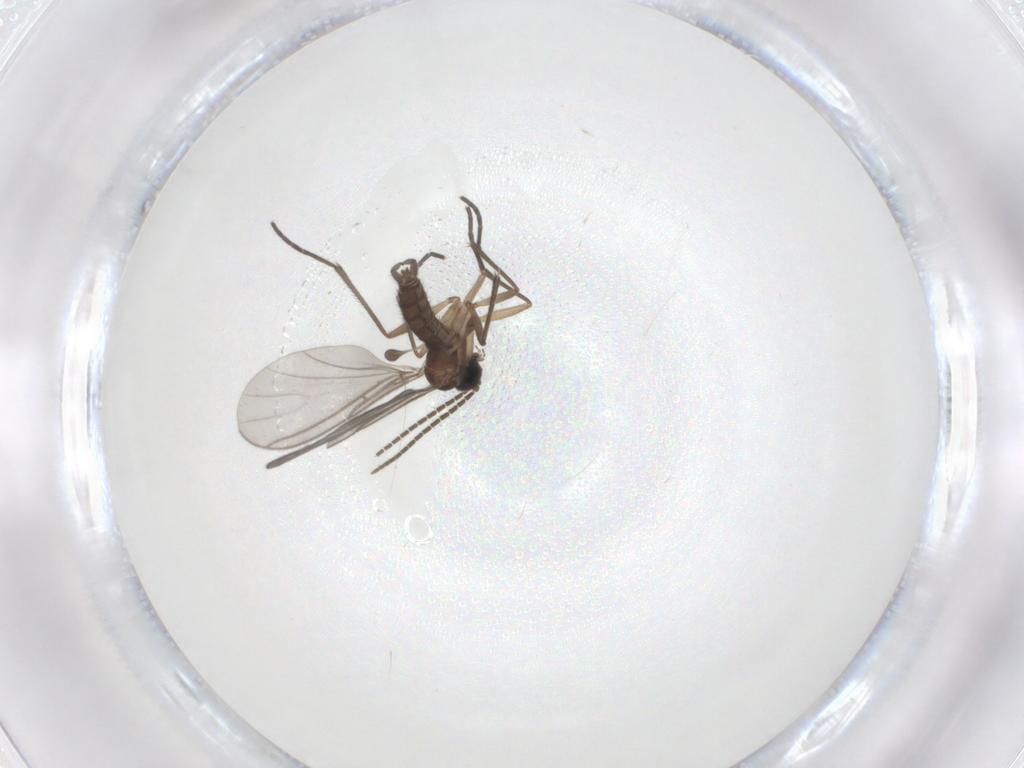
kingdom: Animalia
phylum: Arthropoda
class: Insecta
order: Diptera
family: Sciaridae
